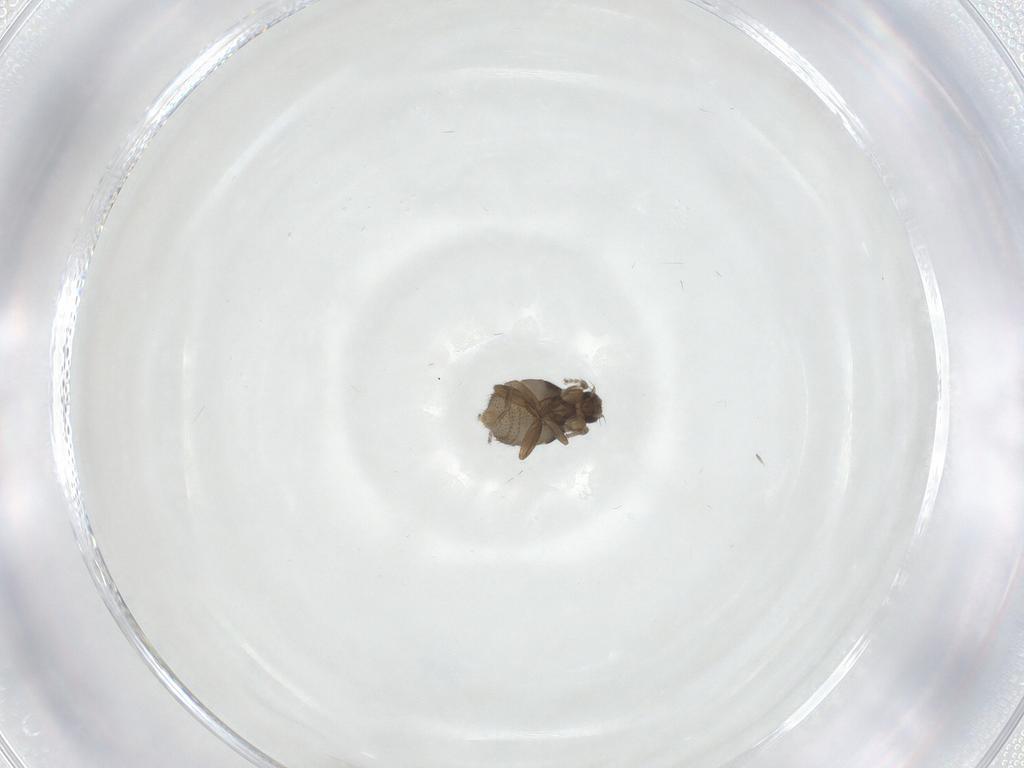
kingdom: Animalia
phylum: Arthropoda
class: Insecta
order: Diptera
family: Phoridae
